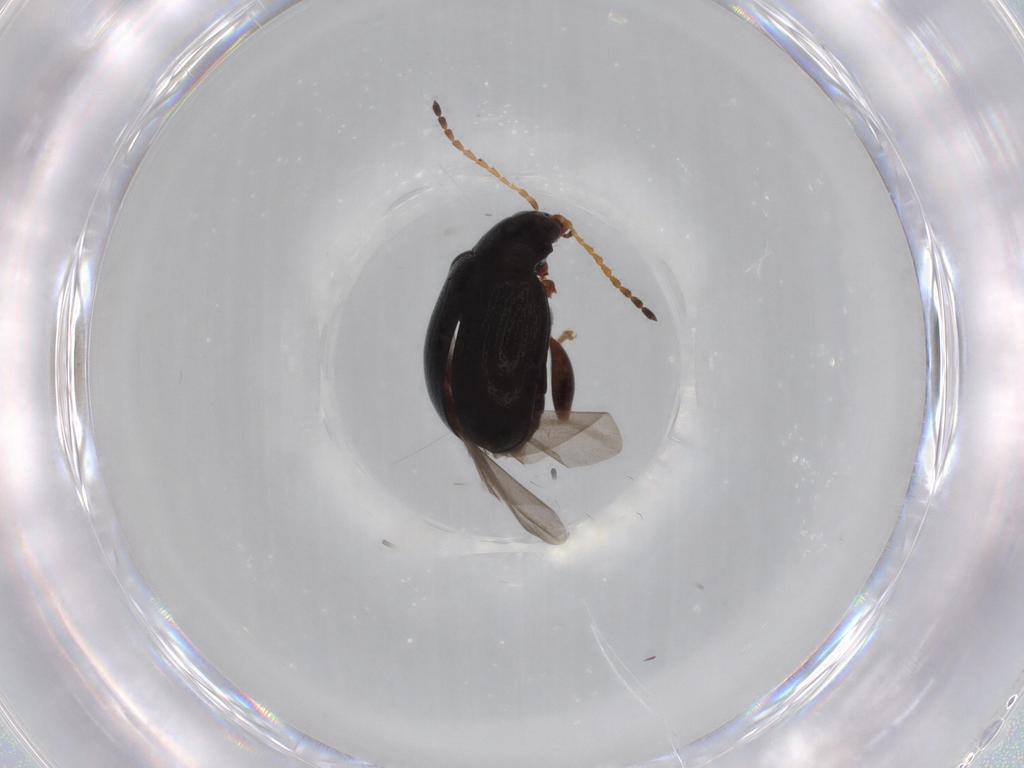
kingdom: Animalia
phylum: Arthropoda
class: Insecta
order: Coleoptera
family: Chrysomelidae
